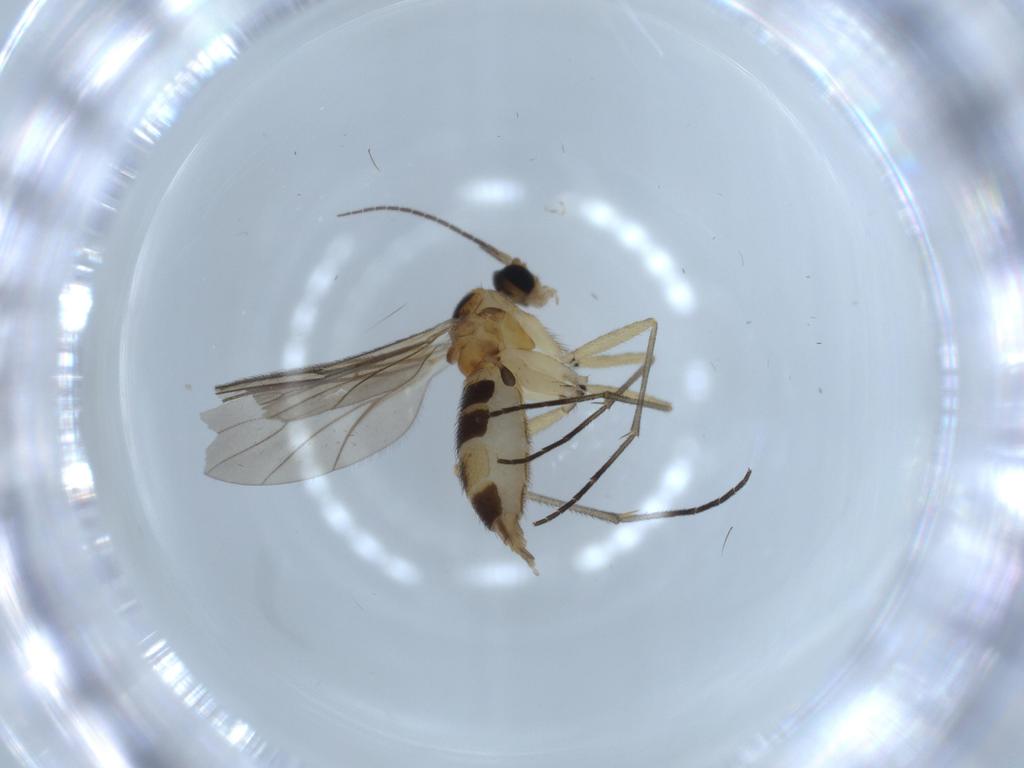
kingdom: Animalia
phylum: Arthropoda
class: Insecta
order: Diptera
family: Sciaridae
